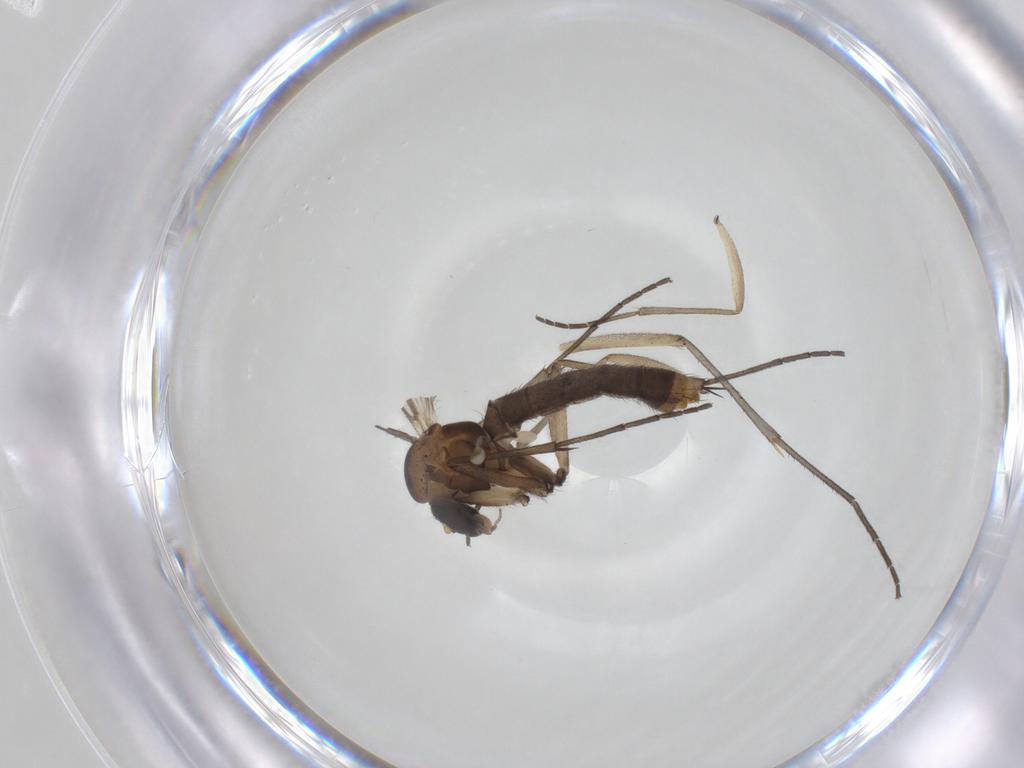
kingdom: Animalia
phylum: Arthropoda
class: Insecta
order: Diptera
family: Mycetophilidae
